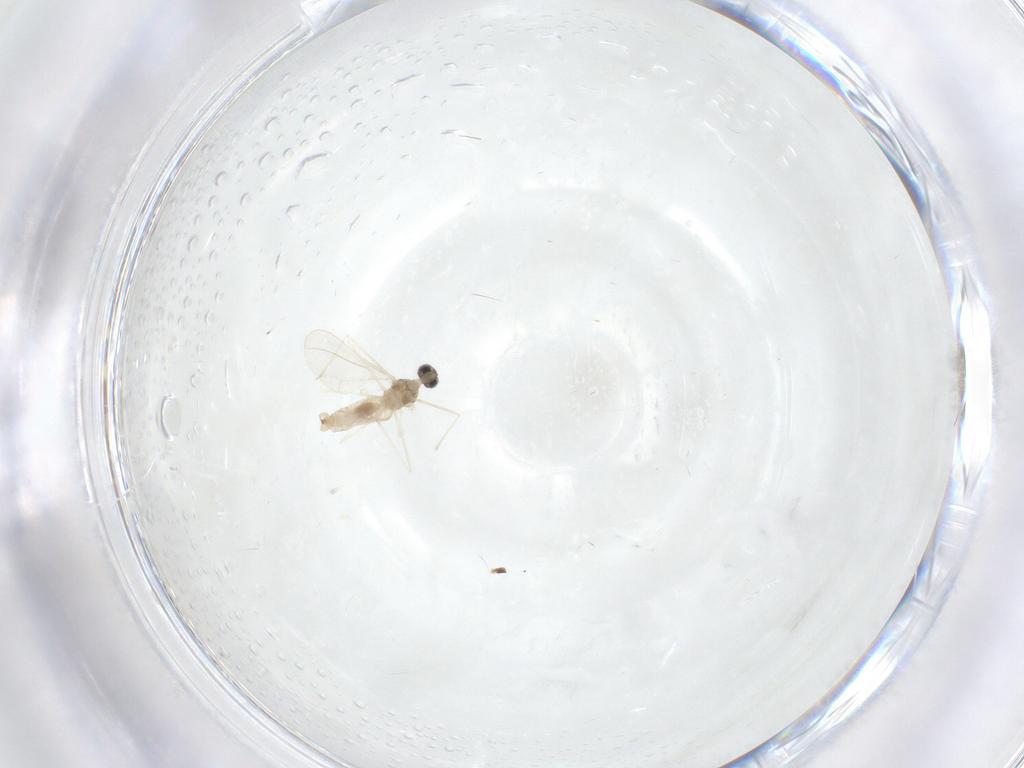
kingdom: Animalia
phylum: Arthropoda
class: Insecta
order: Diptera
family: Cecidomyiidae
